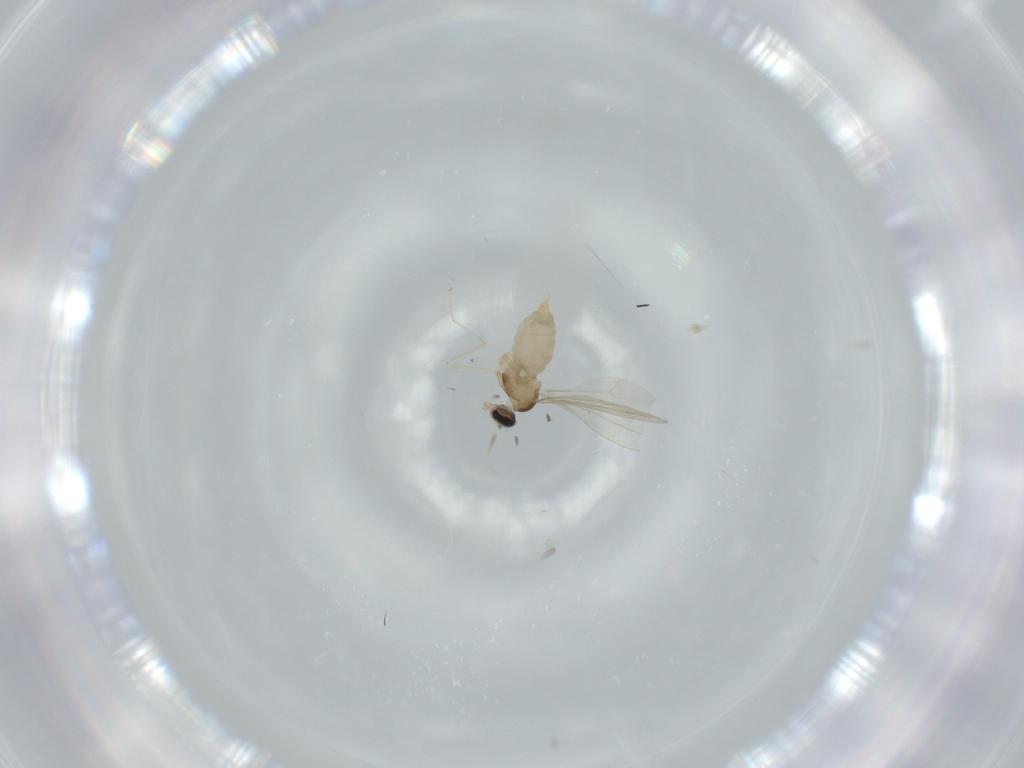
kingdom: Animalia
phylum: Arthropoda
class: Insecta
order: Diptera
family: Cecidomyiidae
